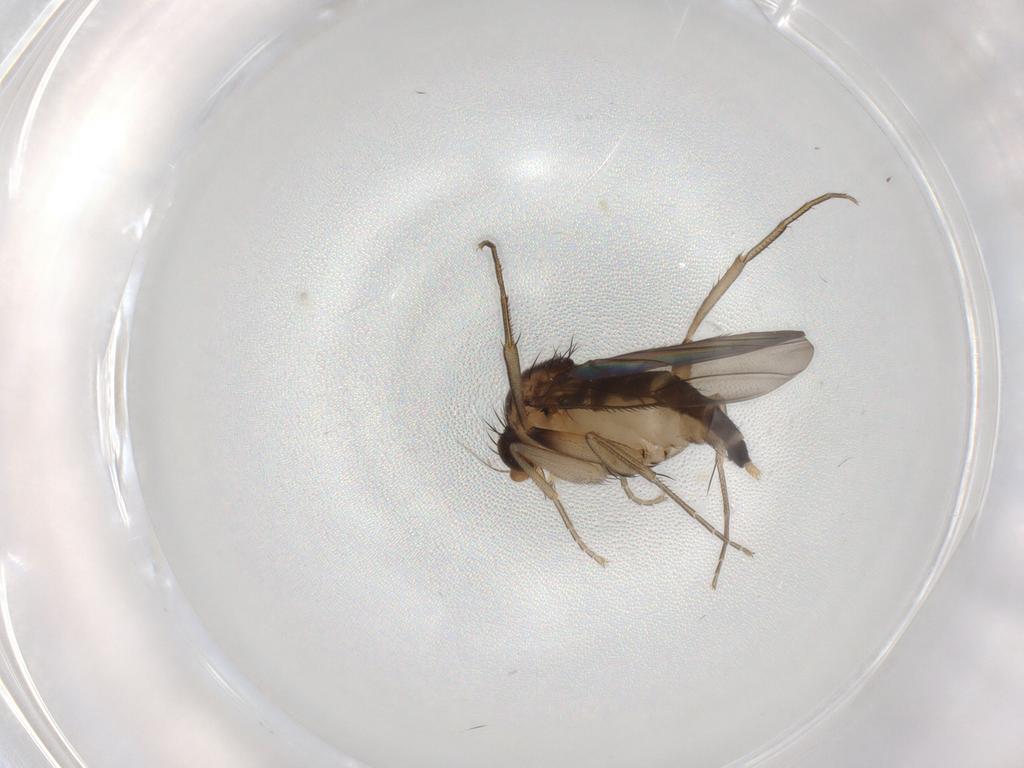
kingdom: Animalia
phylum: Arthropoda
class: Insecta
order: Diptera
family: Phoridae
